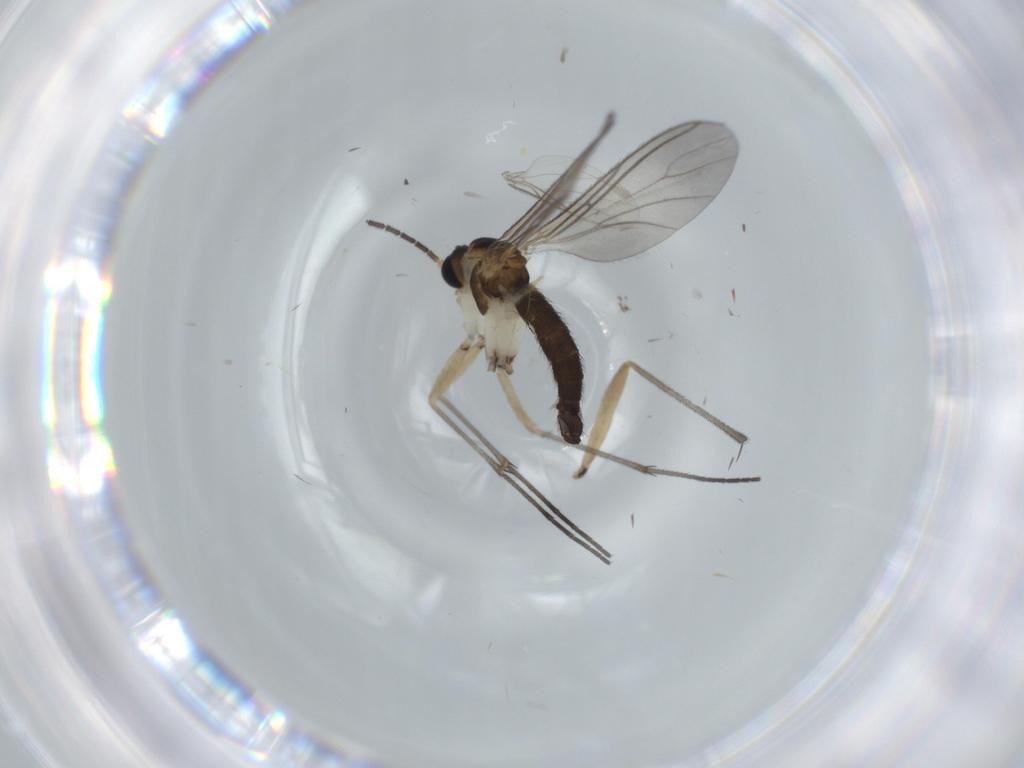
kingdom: Animalia
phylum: Arthropoda
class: Insecta
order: Diptera
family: Sciaridae
